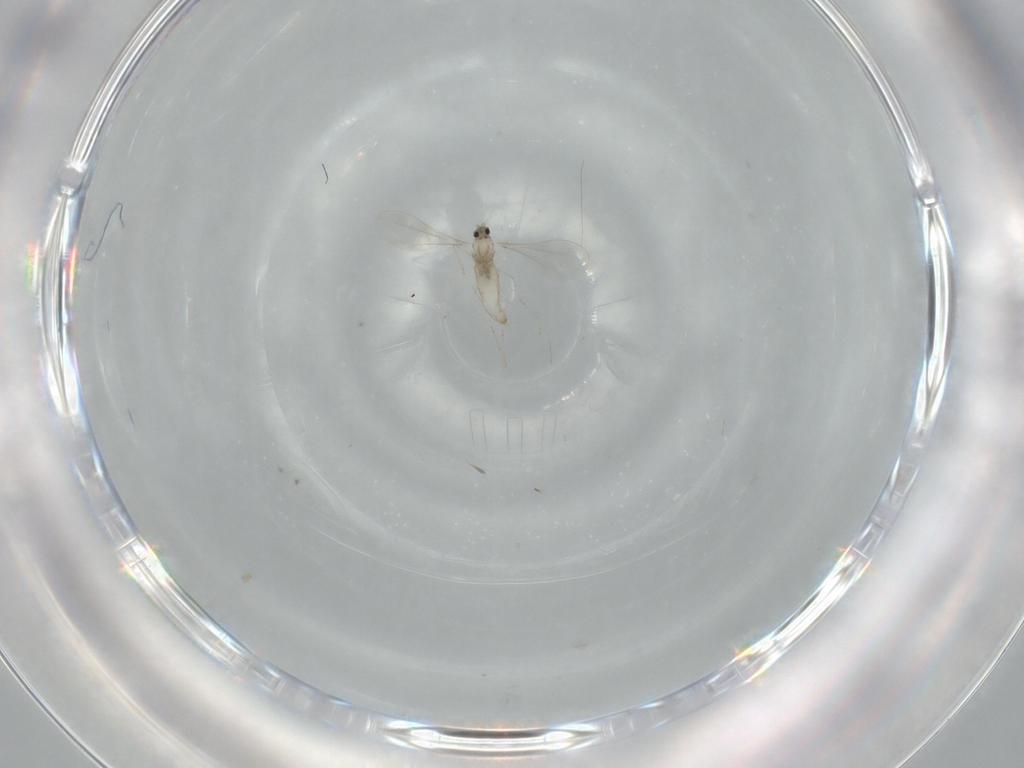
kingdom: Animalia
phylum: Arthropoda
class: Insecta
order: Diptera
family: Cecidomyiidae
